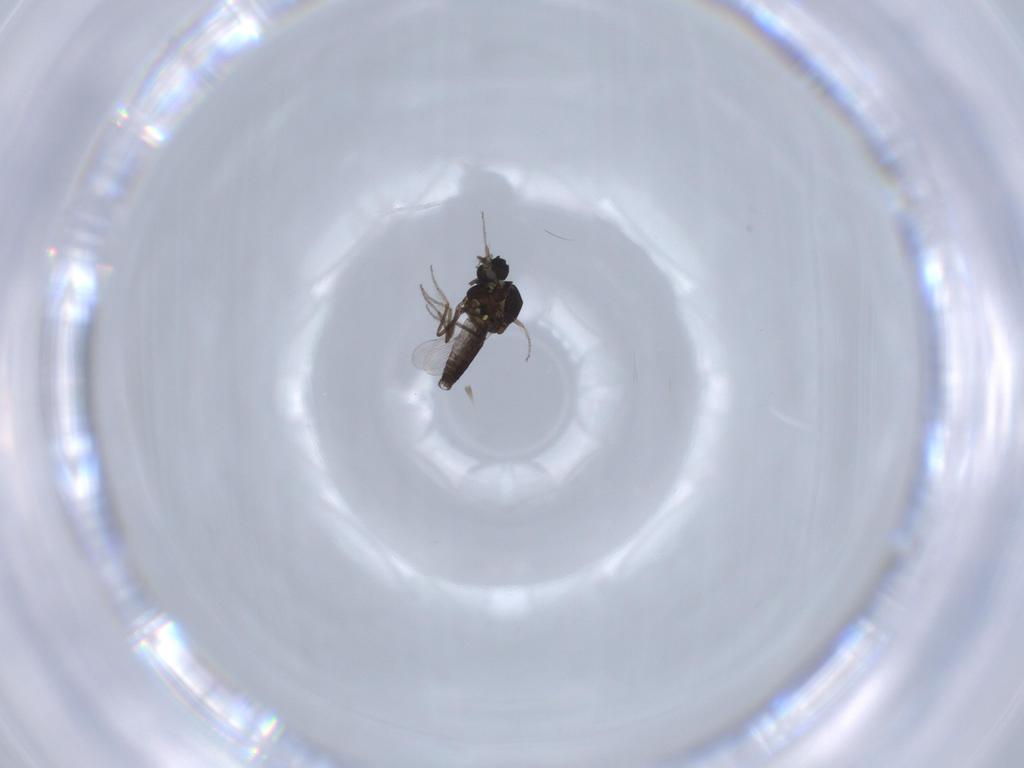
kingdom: Animalia
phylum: Arthropoda
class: Insecta
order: Diptera
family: Ceratopogonidae
